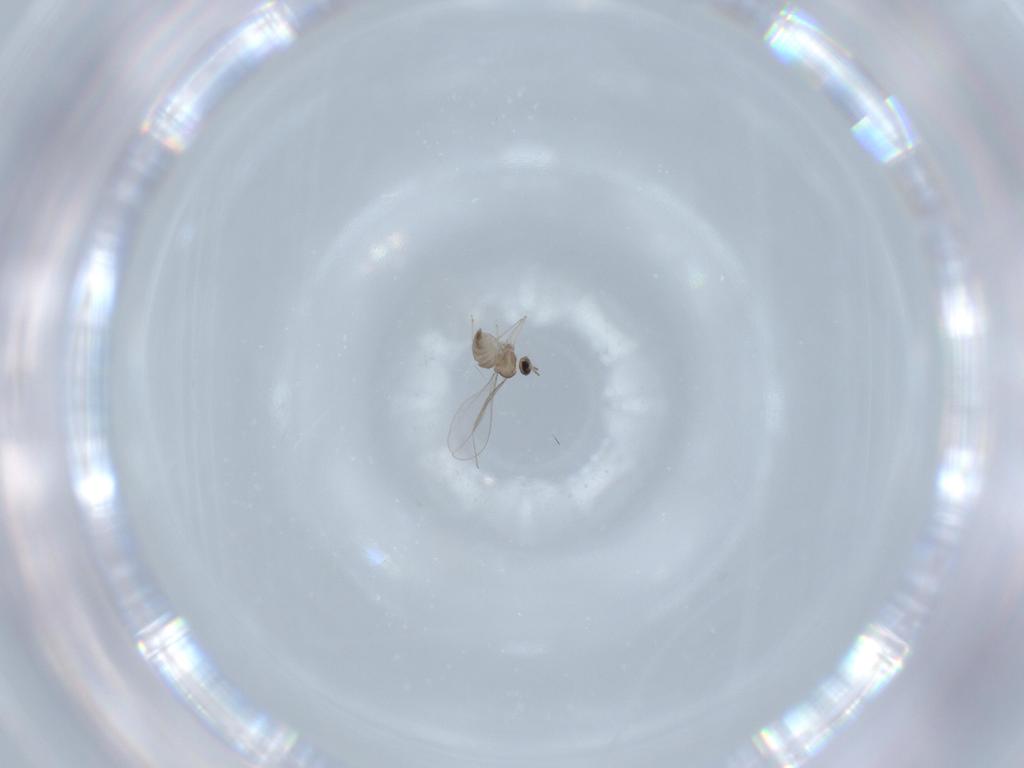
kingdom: Animalia
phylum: Arthropoda
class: Insecta
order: Diptera
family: Cecidomyiidae
